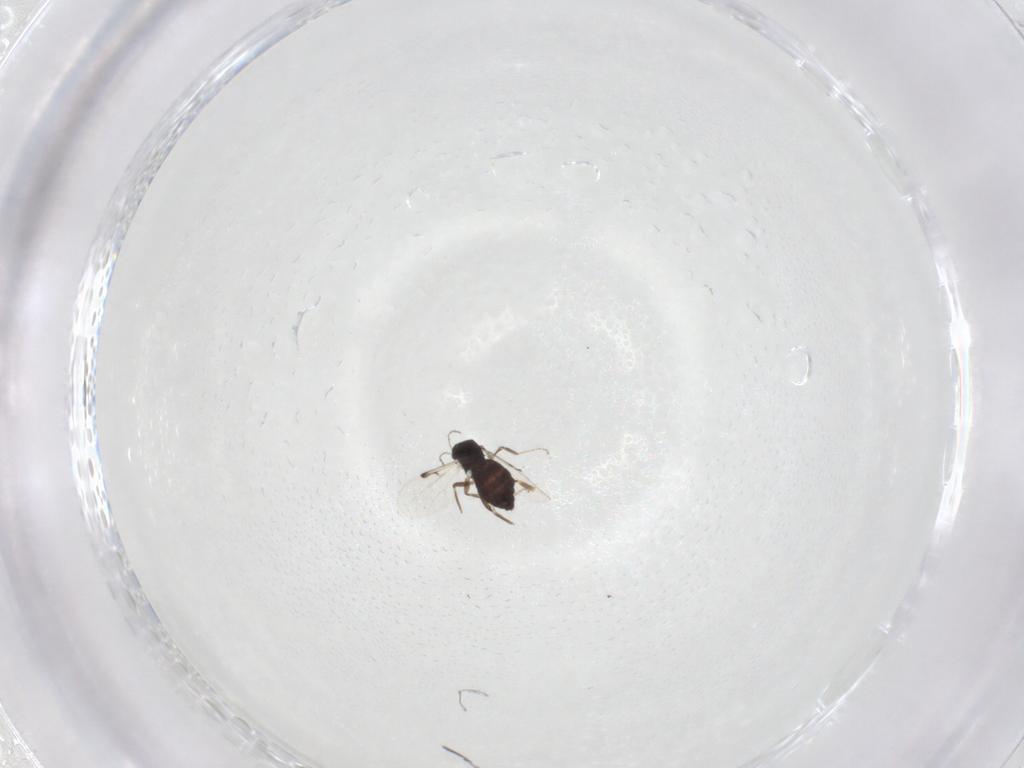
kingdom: Animalia
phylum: Arthropoda
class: Insecta
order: Diptera
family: Ceratopogonidae
